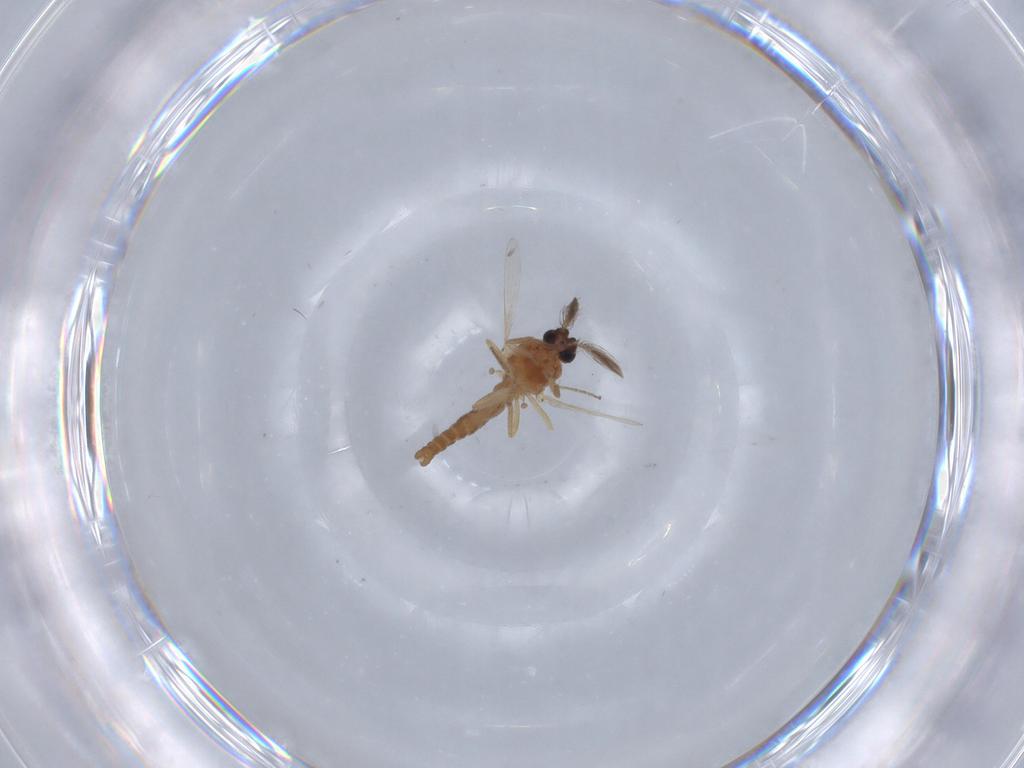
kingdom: Animalia
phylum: Arthropoda
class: Insecta
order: Diptera
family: Ceratopogonidae
